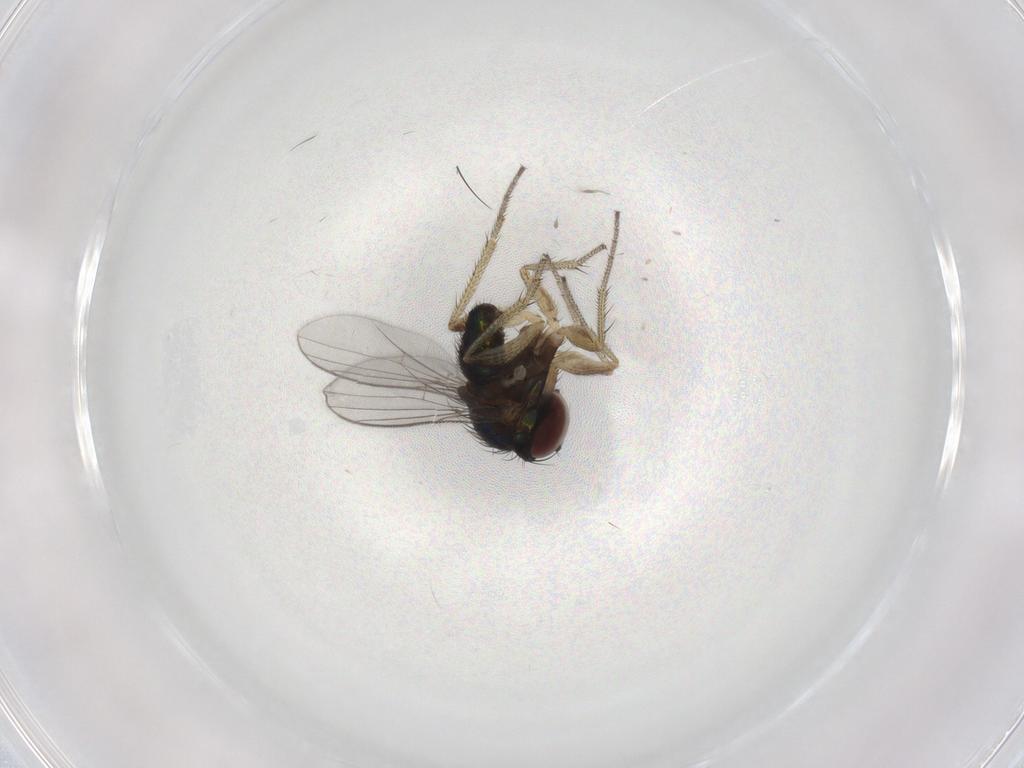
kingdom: Animalia
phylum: Arthropoda
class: Insecta
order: Diptera
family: Dolichopodidae
